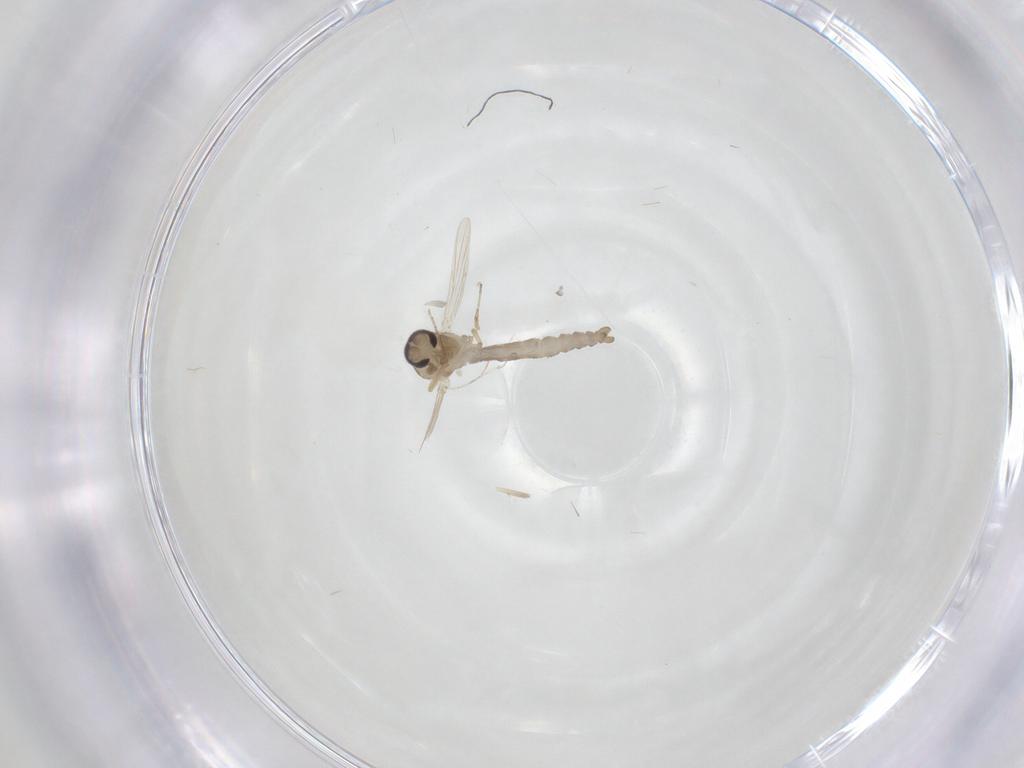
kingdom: Animalia
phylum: Arthropoda
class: Insecta
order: Diptera
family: Ceratopogonidae
